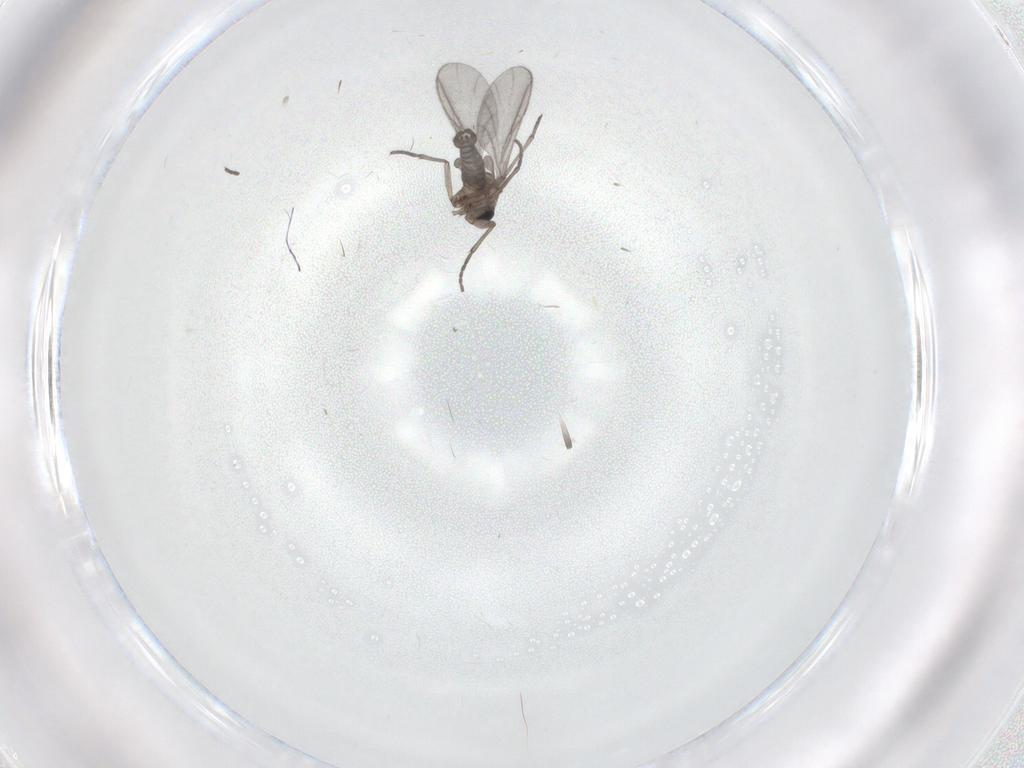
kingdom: Animalia
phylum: Arthropoda
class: Insecta
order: Diptera
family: Sciaridae
